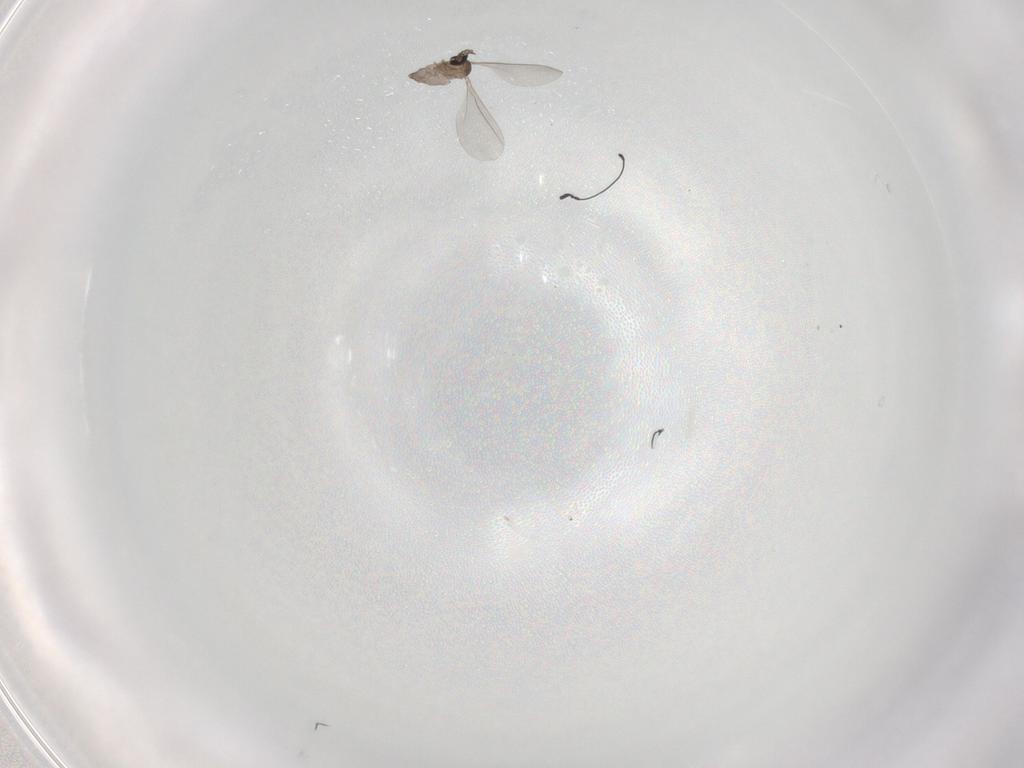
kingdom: Animalia
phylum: Arthropoda
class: Insecta
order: Diptera
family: Cecidomyiidae
